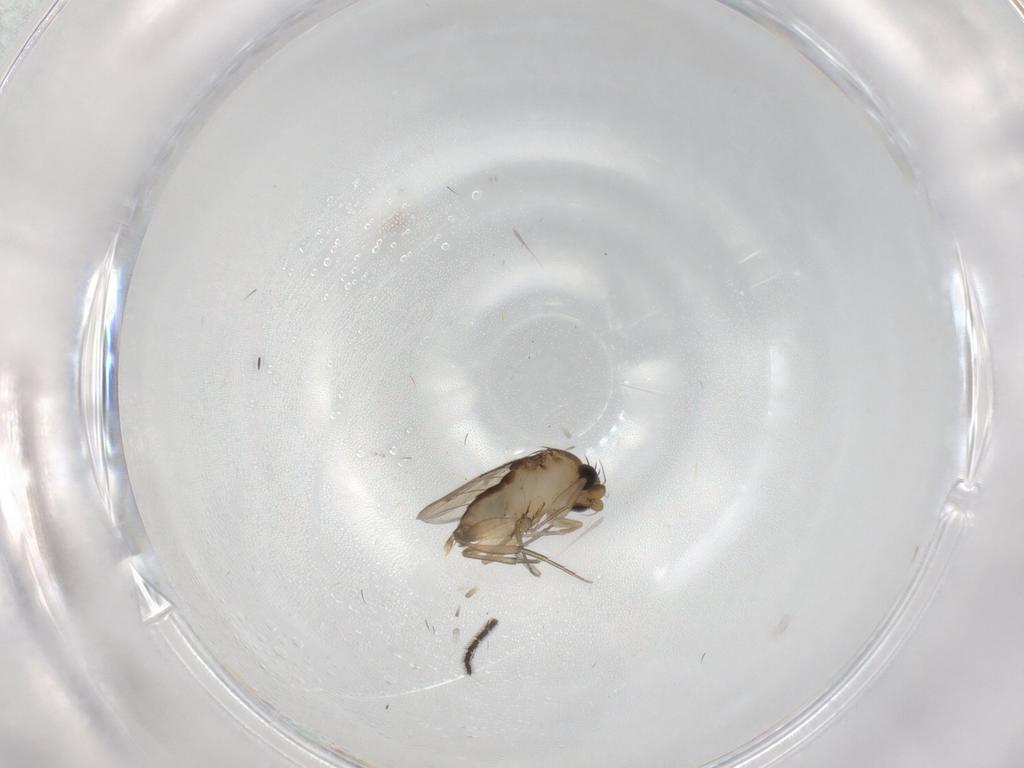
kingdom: Animalia
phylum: Arthropoda
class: Insecta
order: Diptera
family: Phoridae
